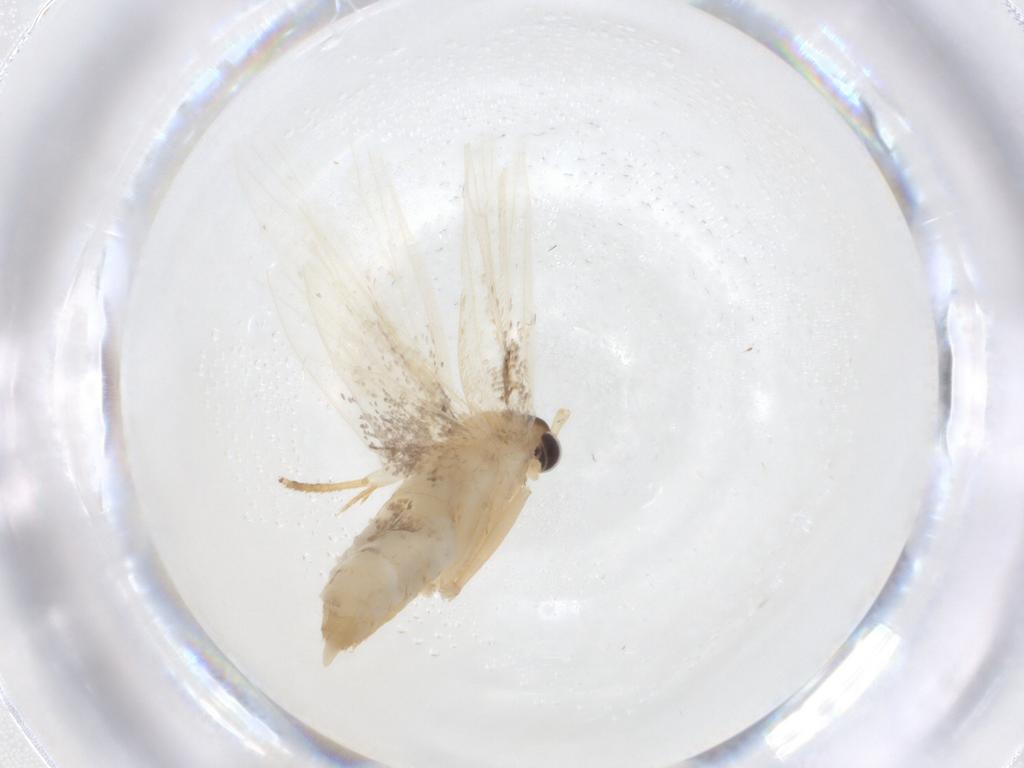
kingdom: Animalia
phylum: Arthropoda
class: Insecta
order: Lepidoptera
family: Lecithoceridae
